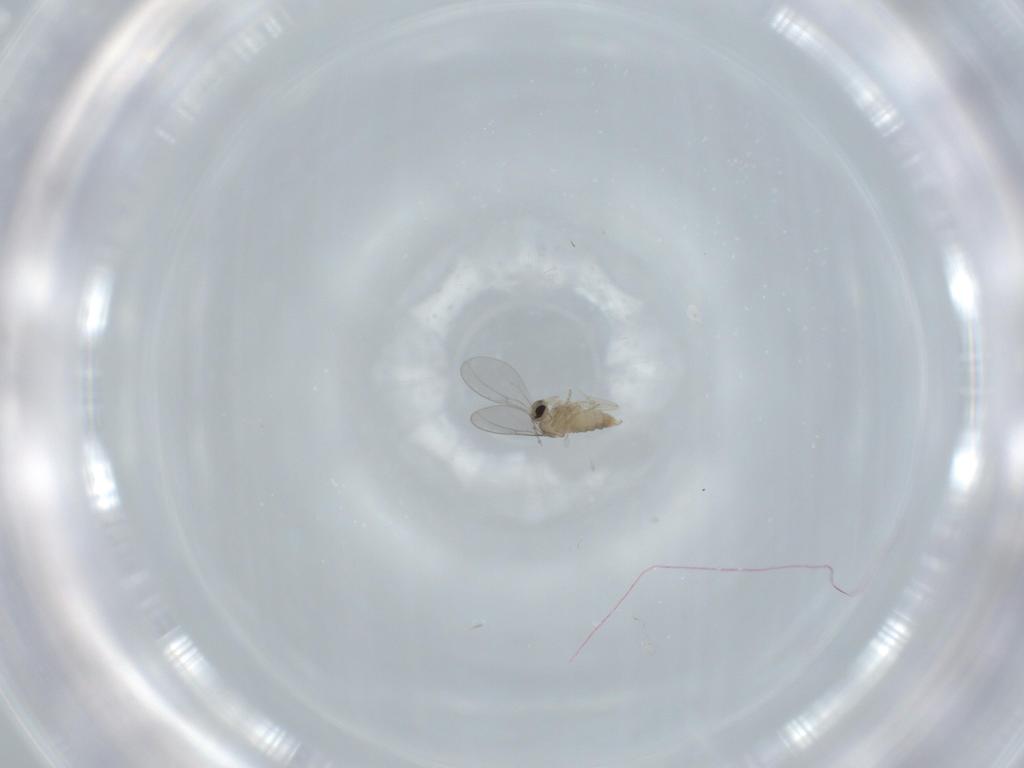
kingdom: Animalia
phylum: Arthropoda
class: Insecta
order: Diptera
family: Cecidomyiidae
